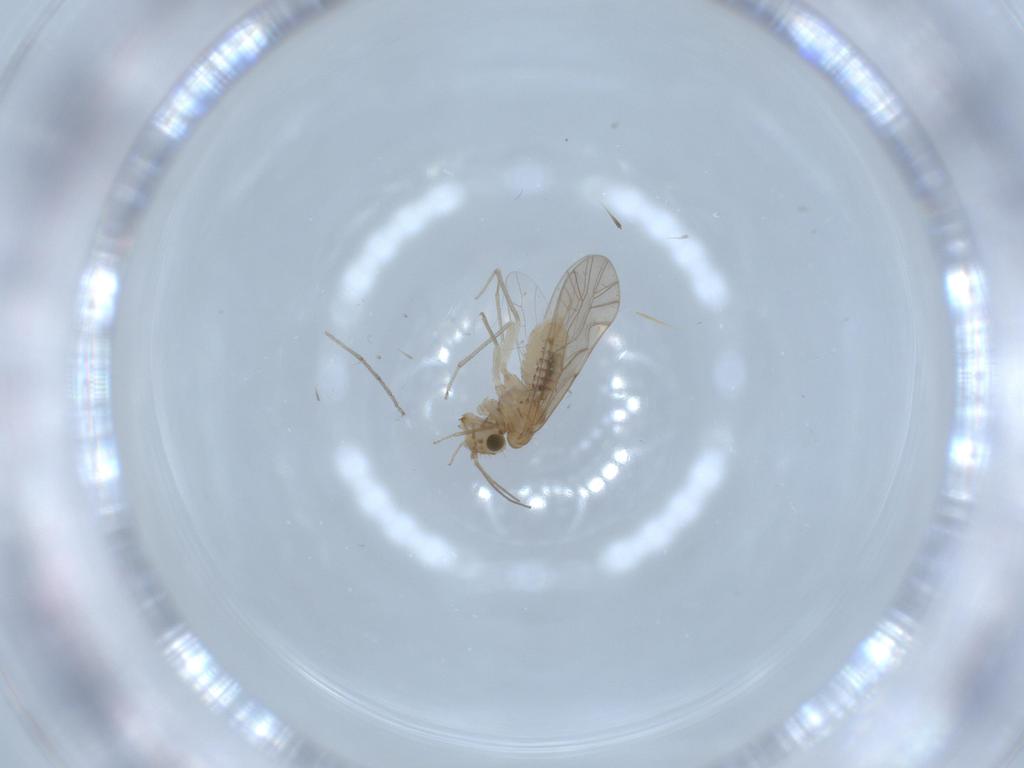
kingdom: Animalia
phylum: Arthropoda
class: Insecta
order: Psocodea
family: Lachesillidae
